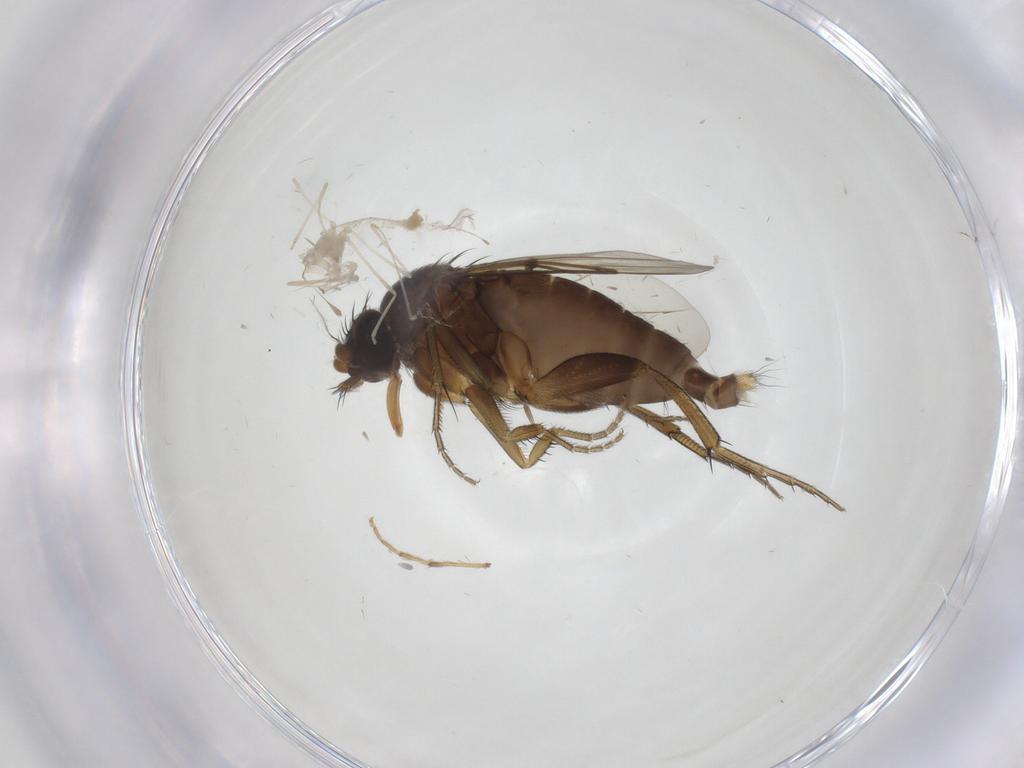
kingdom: Animalia
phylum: Arthropoda
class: Insecta
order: Diptera
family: Phoridae
